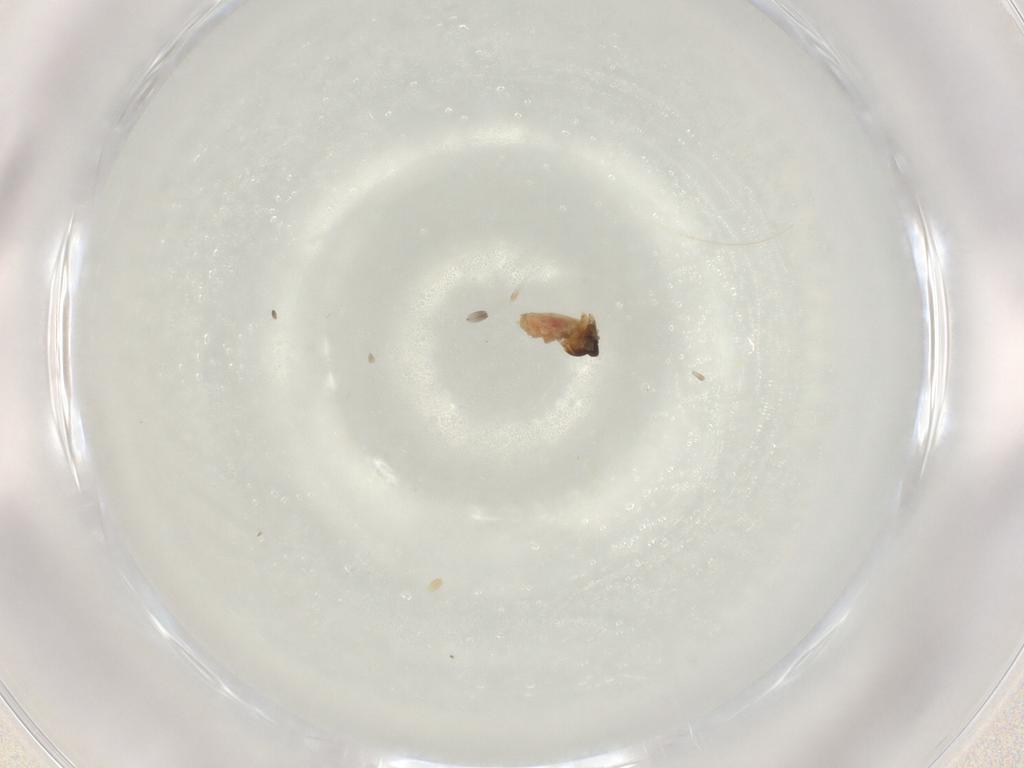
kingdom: Animalia
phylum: Arthropoda
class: Insecta
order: Diptera
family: Cecidomyiidae
